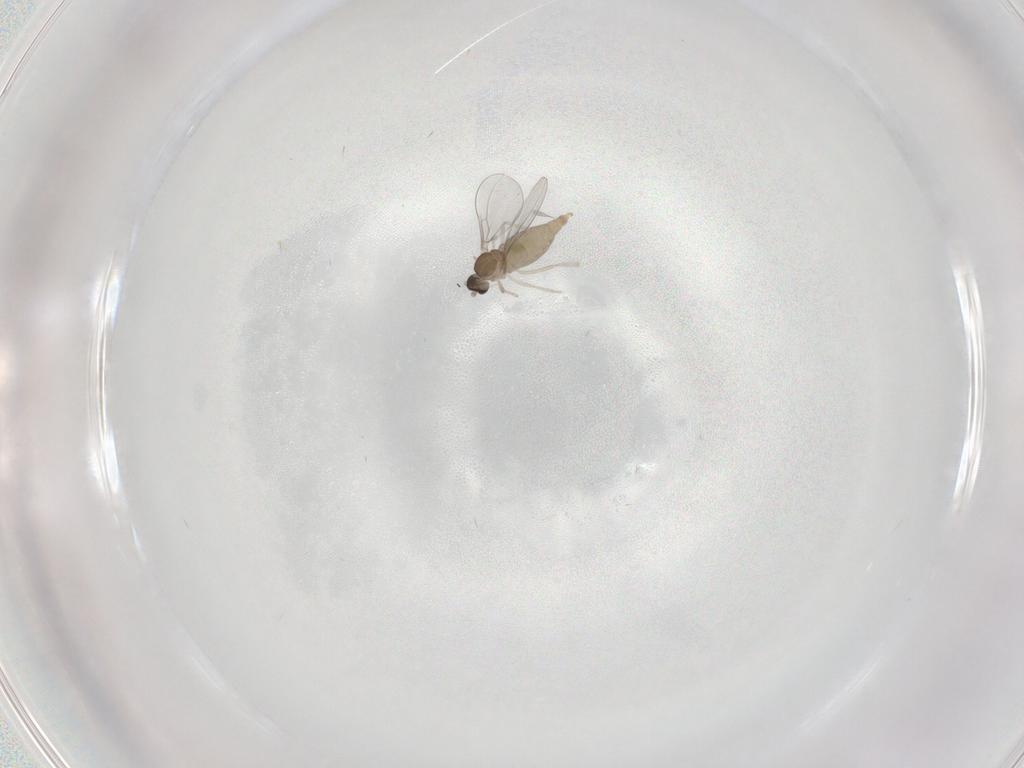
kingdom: Animalia
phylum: Arthropoda
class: Insecta
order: Diptera
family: Cecidomyiidae
